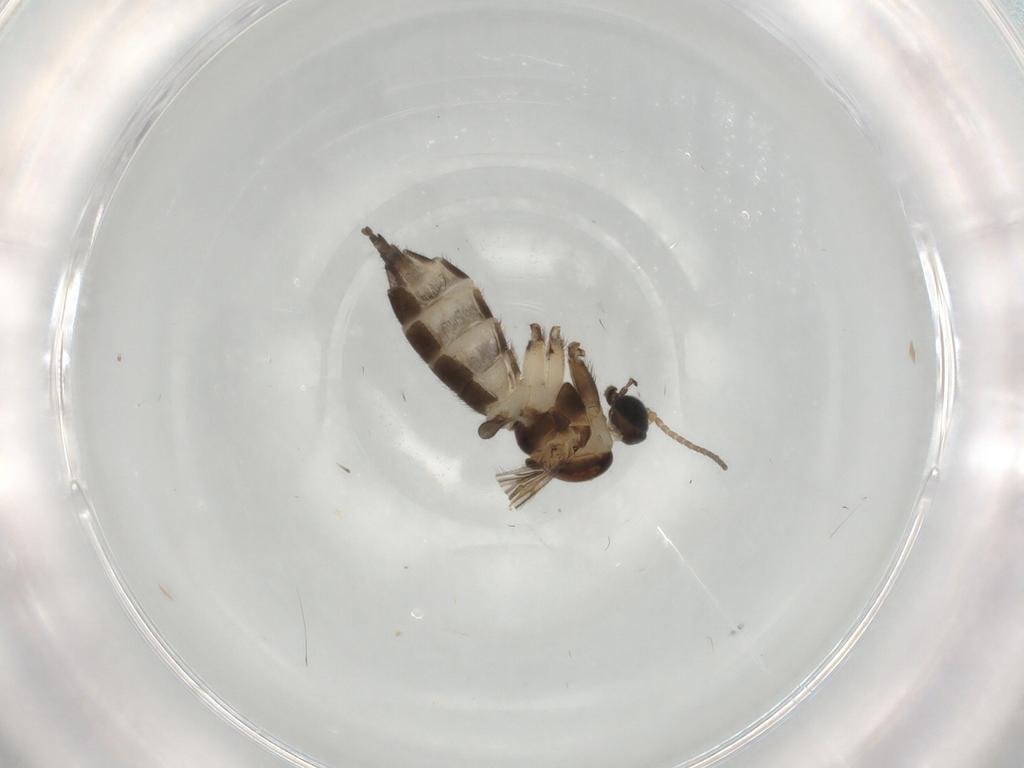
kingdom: Animalia
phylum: Arthropoda
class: Insecta
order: Diptera
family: Sciaridae
